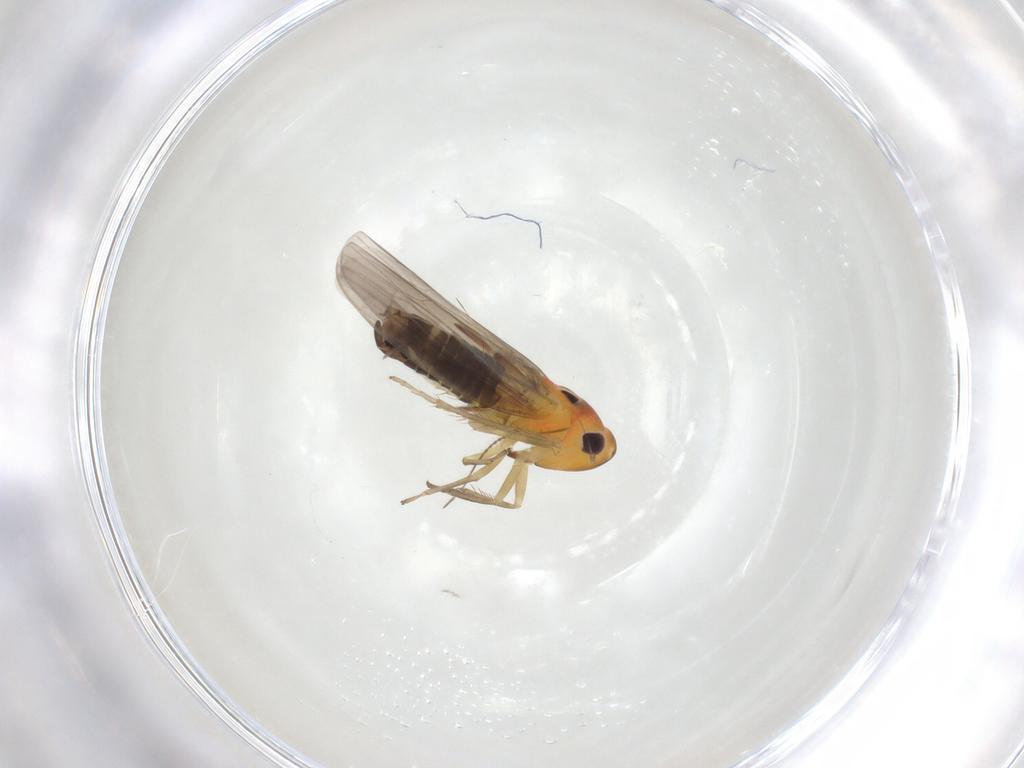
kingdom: Animalia
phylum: Arthropoda
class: Insecta
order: Hemiptera
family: Cicadellidae
